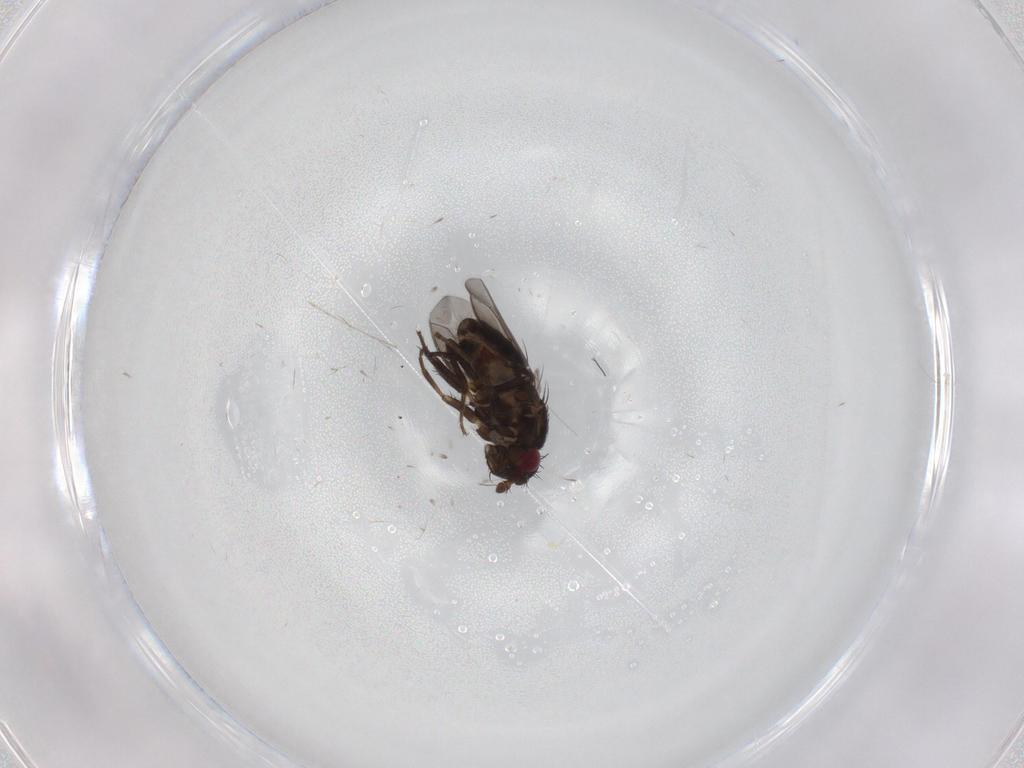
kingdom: Animalia
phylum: Arthropoda
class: Insecta
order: Diptera
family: Sphaeroceridae
